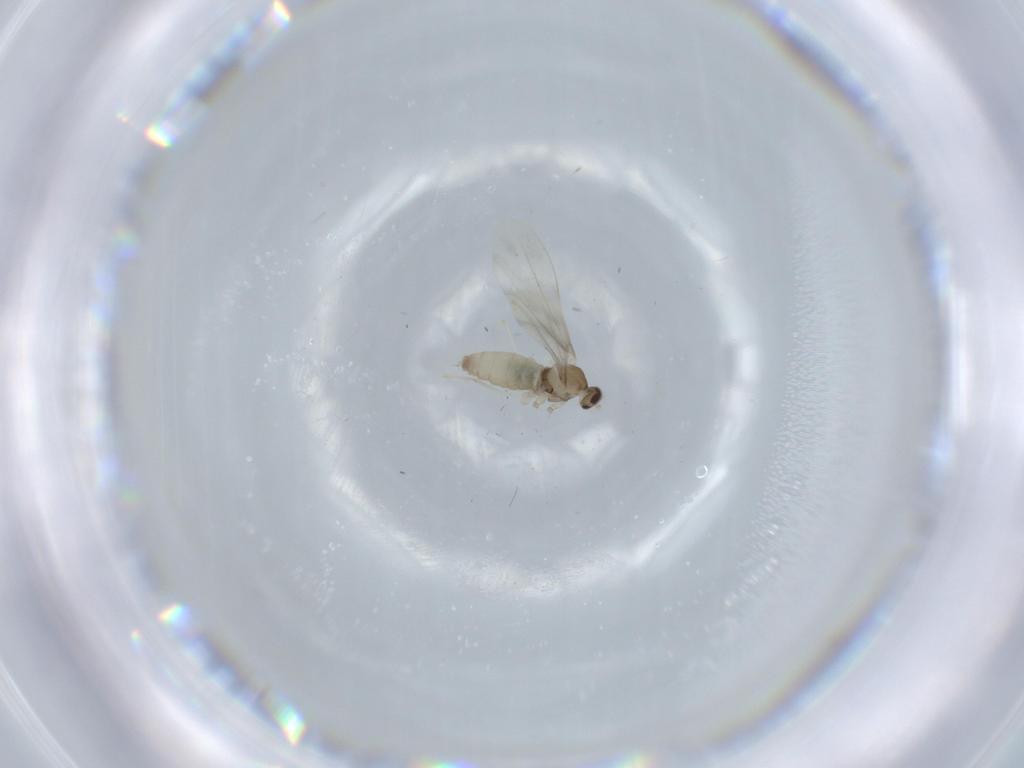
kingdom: Animalia
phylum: Arthropoda
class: Insecta
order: Diptera
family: Cecidomyiidae
